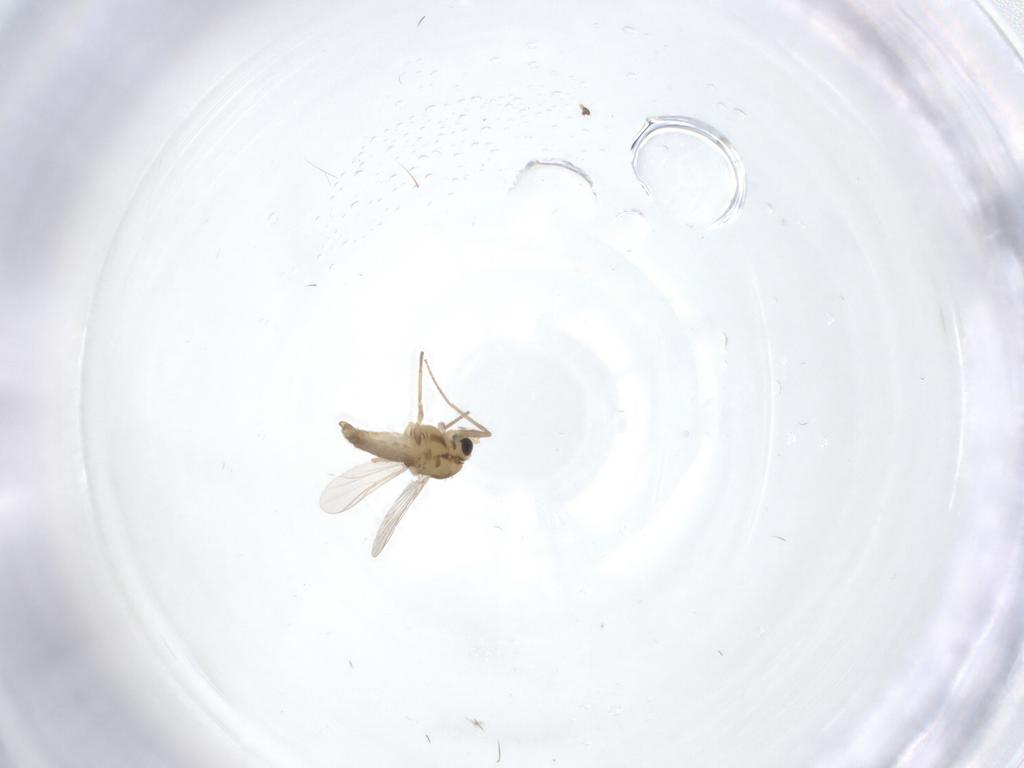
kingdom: Animalia
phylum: Arthropoda
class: Insecta
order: Diptera
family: Chironomidae
